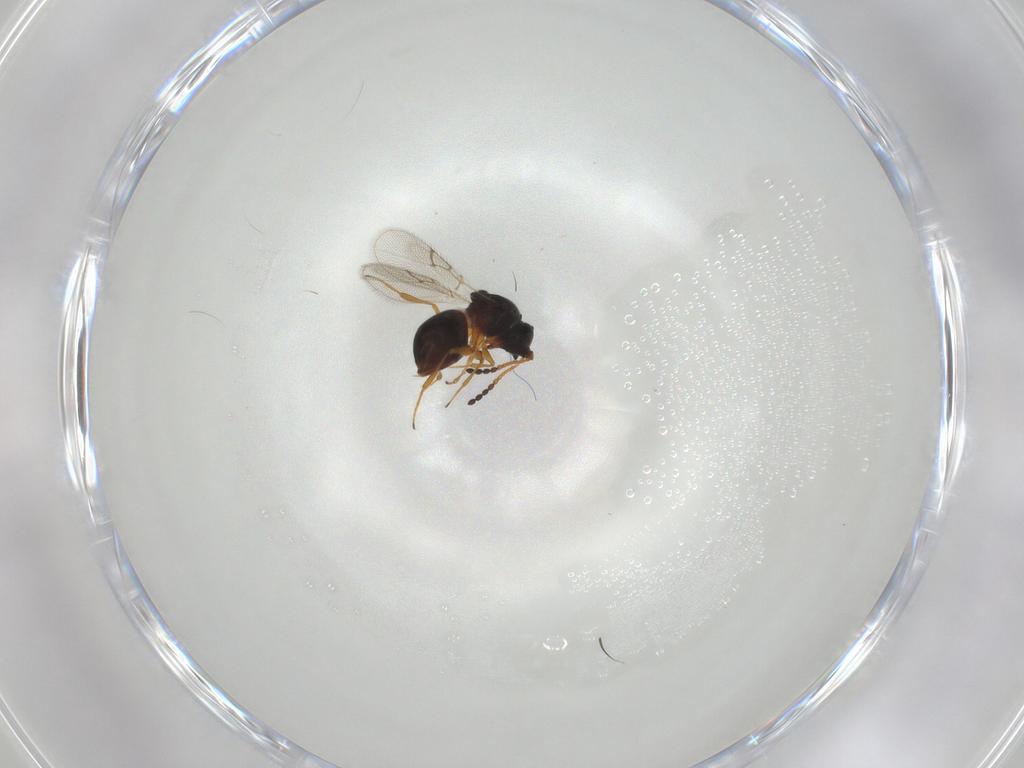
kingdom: Animalia
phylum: Arthropoda
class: Insecta
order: Hymenoptera
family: Figitidae
